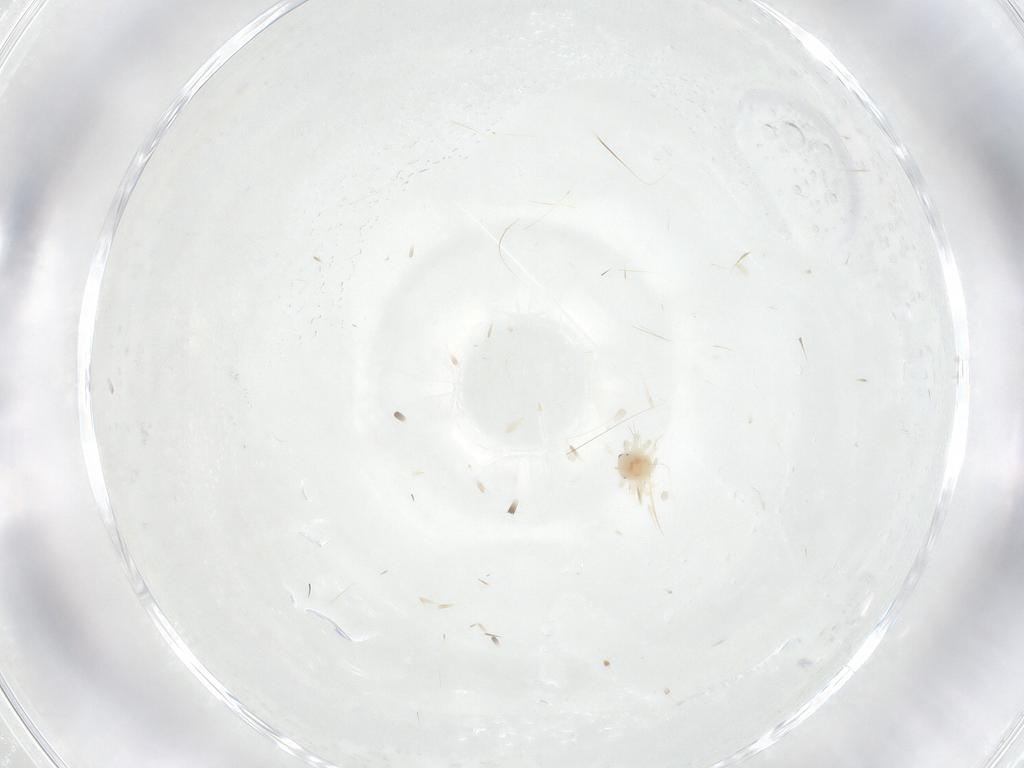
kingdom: Animalia
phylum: Arthropoda
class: Arachnida
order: Trombidiformes
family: Anystidae
